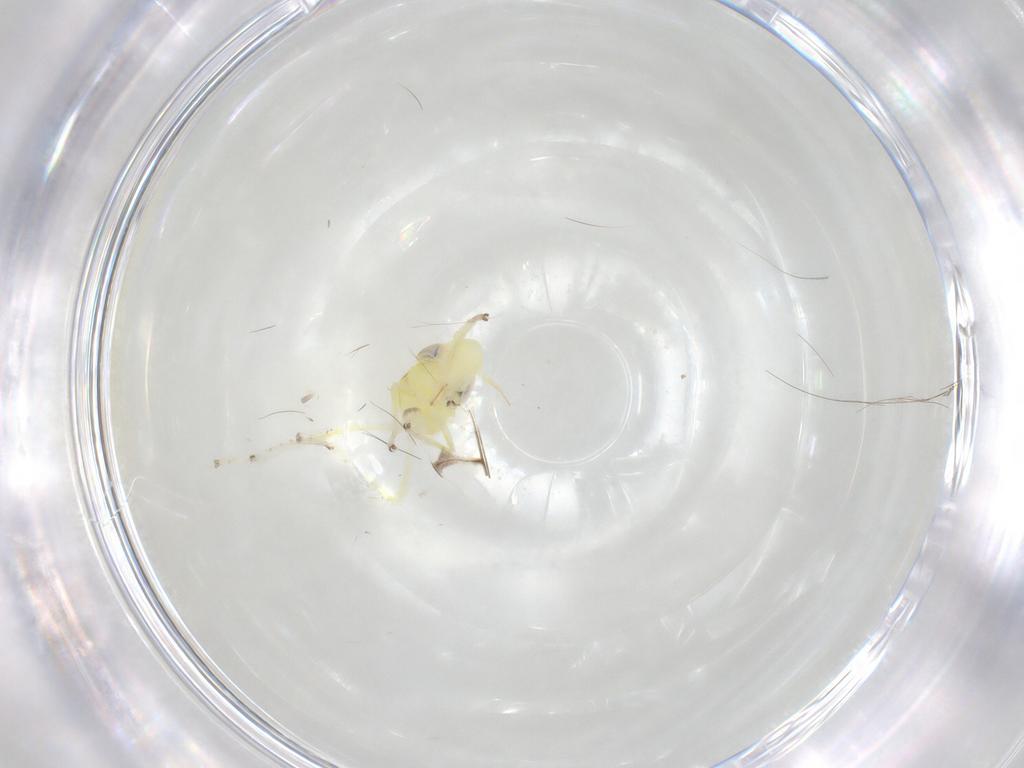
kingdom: Animalia
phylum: Arthropoda
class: Insecta
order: Hemiptera
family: Cicadellidae
